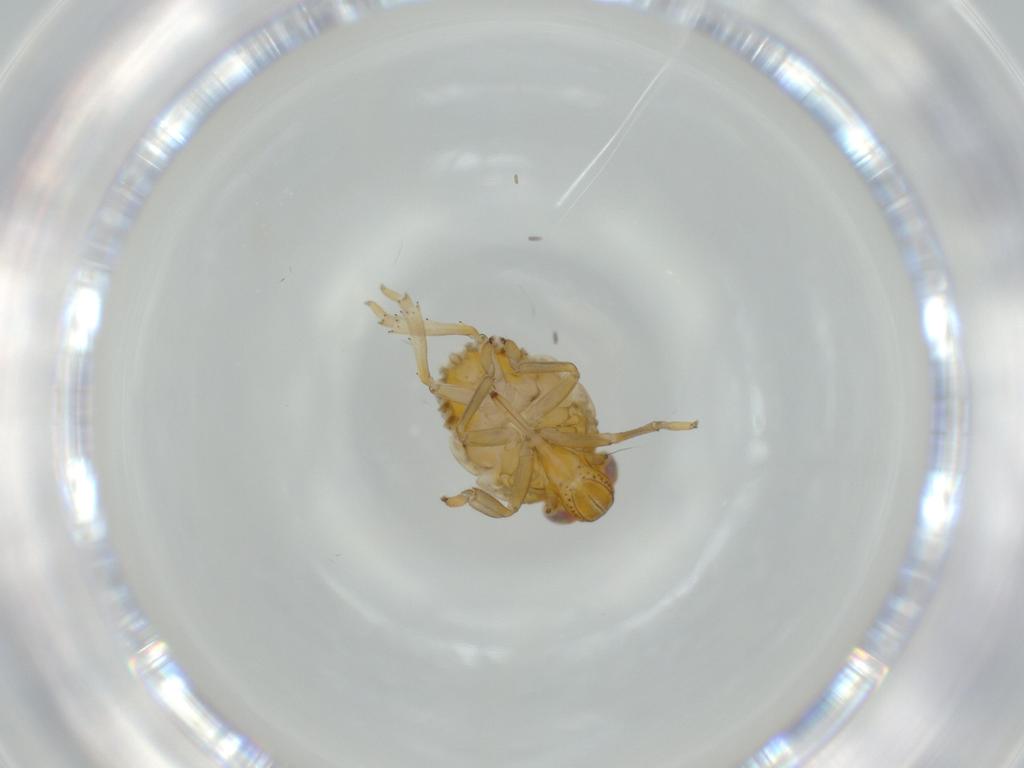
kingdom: Animalia
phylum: Arthropoda
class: Insecta
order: Hemiptera
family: Issidae
